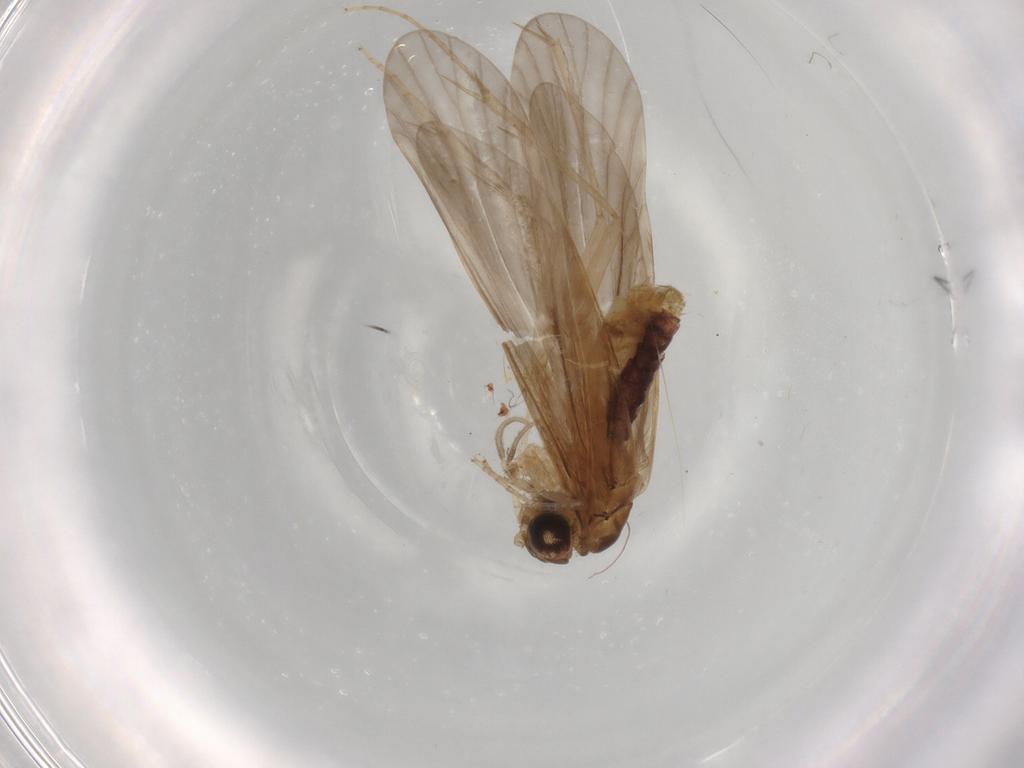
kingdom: Animalia
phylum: Arthropoda
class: Insecta
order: Trichoptera
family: Ecnomidae
